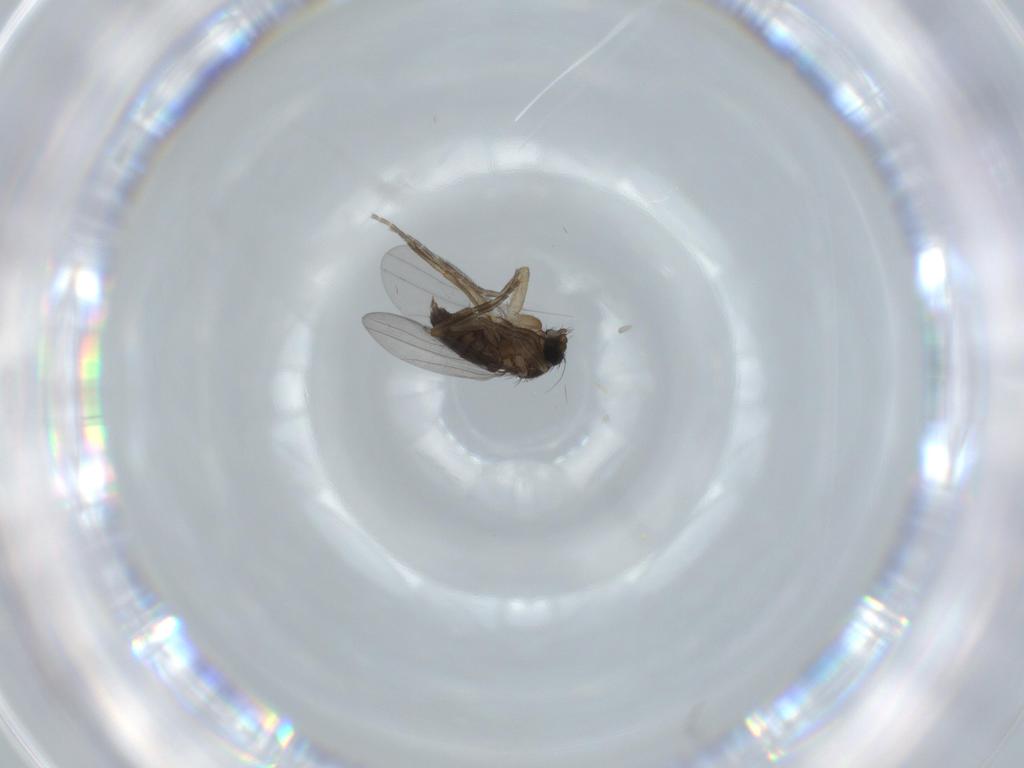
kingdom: Animalia
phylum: Arthropoda
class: Insecta
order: Diptera
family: Phoridae
